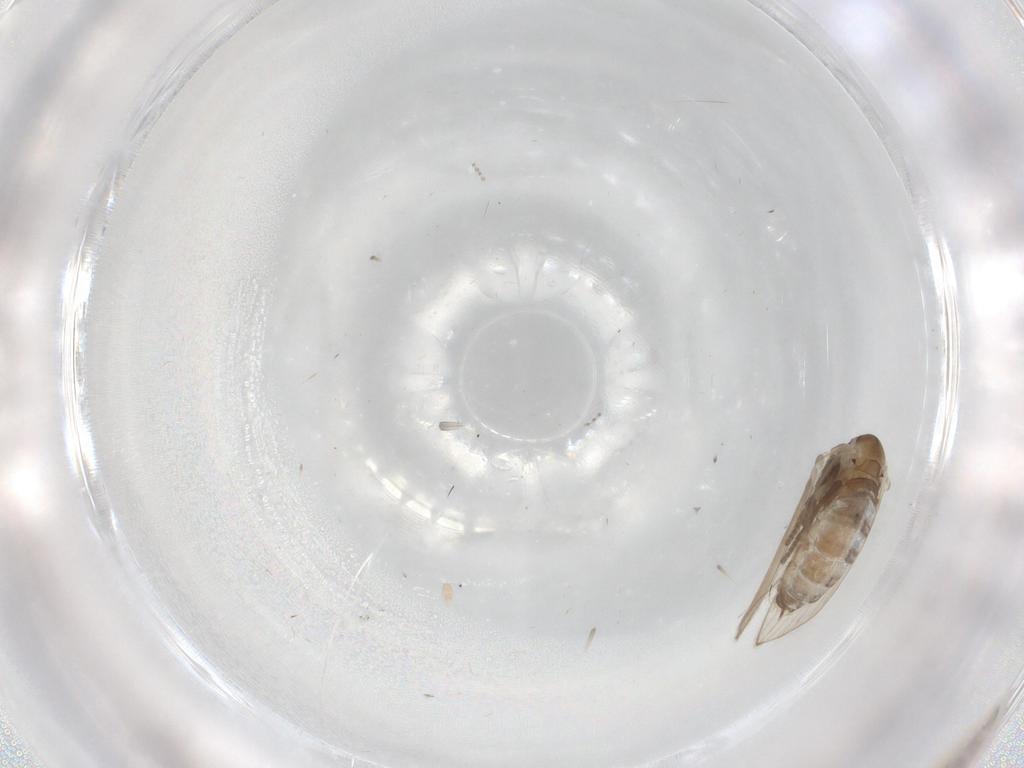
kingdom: Animalia
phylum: Arthropoda
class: Insecta
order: Diptera
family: Psychodidae
